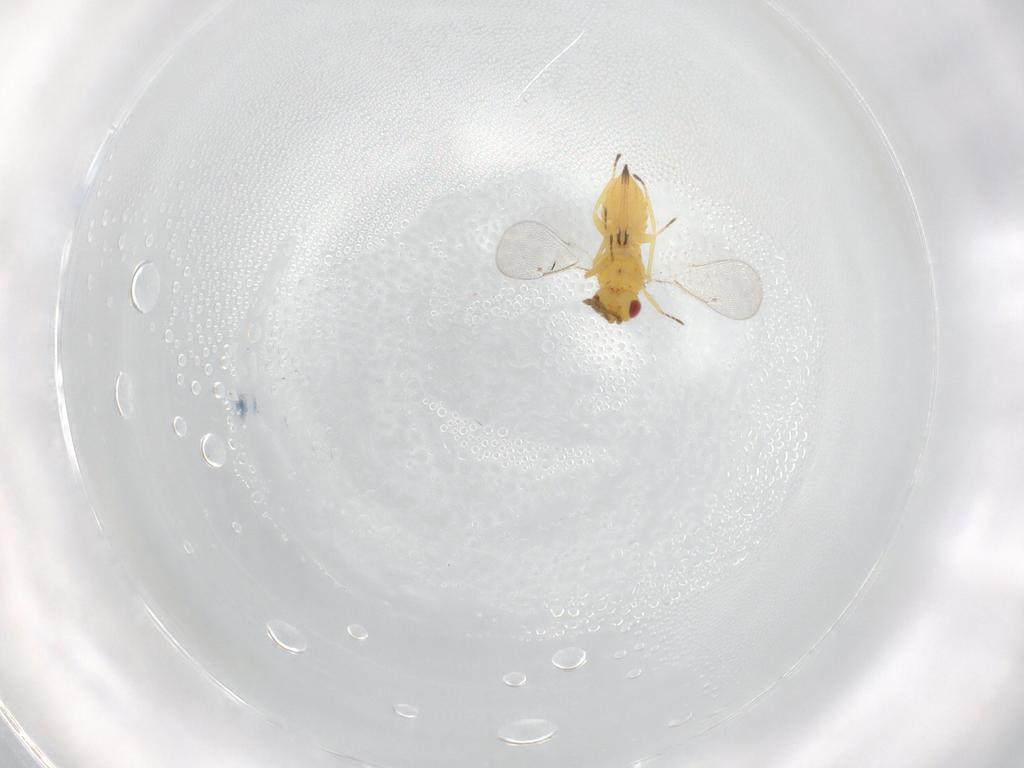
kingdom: Animalia
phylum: Arthropoda
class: Insecta
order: Hymenoptera
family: Eulophidae
